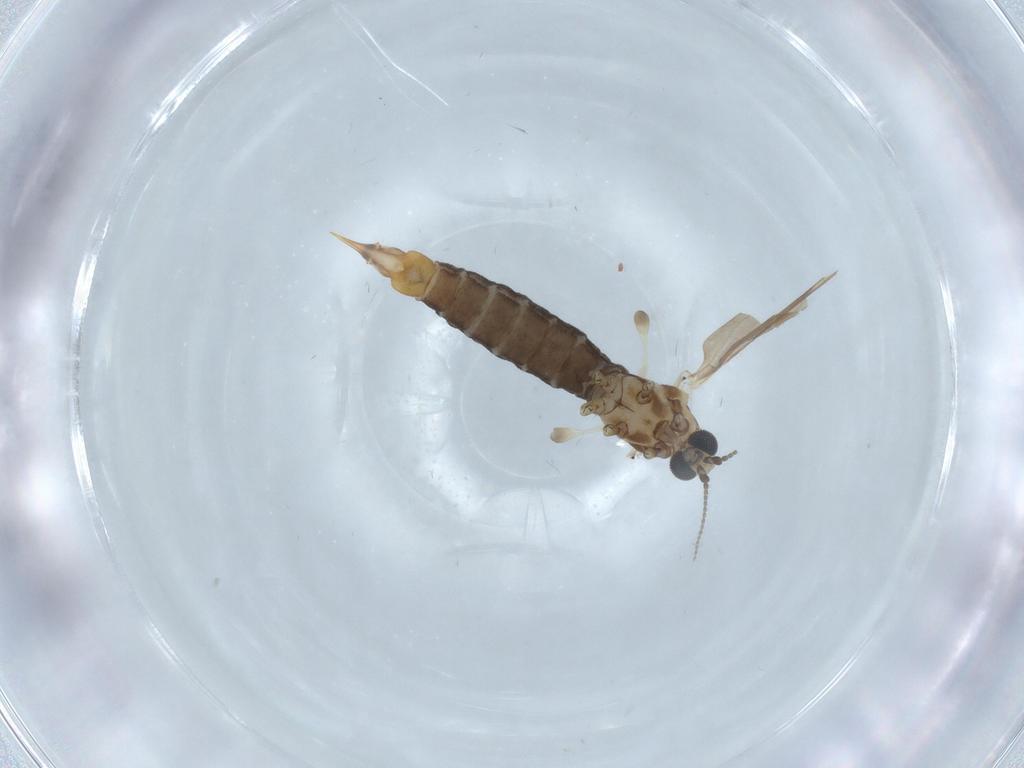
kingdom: Animalia
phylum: Arthropoda
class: Insecta
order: Diptera
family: Limoniidae
